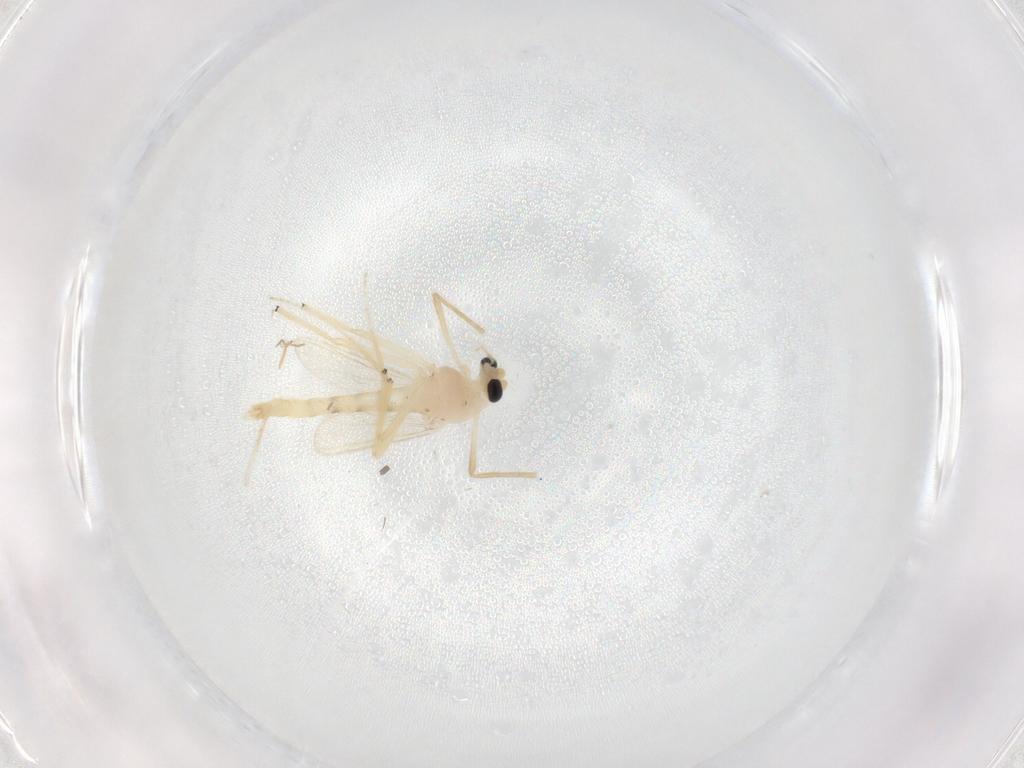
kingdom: Animalia
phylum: Arthropoda
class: Insecta
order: Diptera
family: Chironomidae
